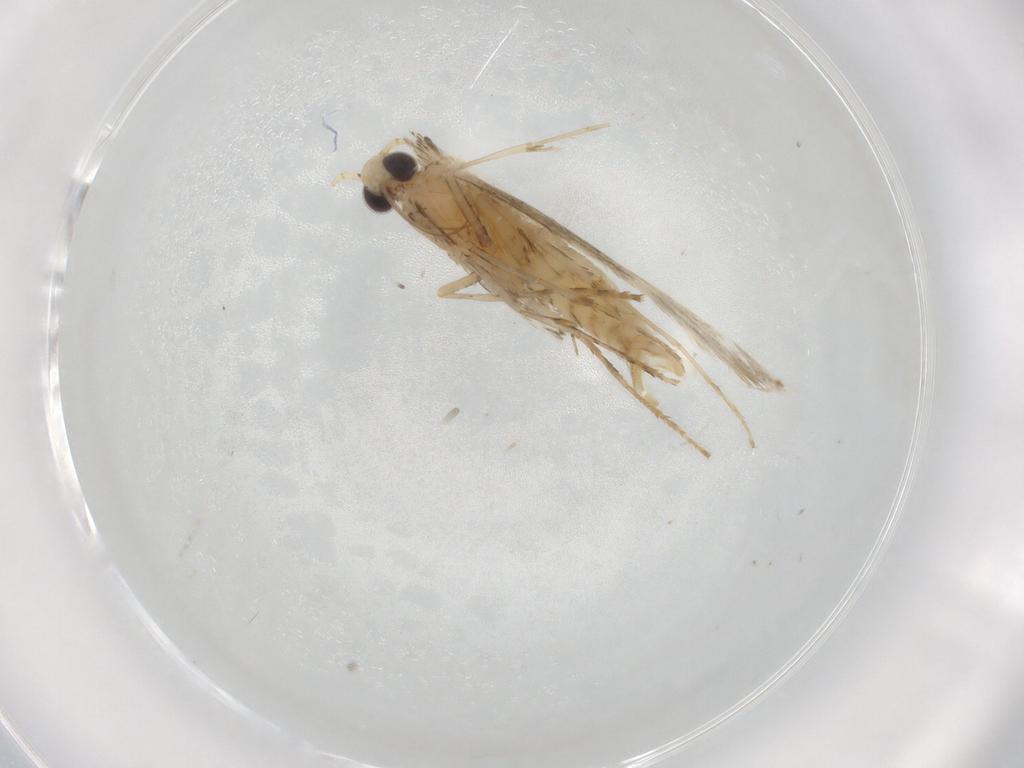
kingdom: Animalia
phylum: Arthropoda
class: Insecta
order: Lepidoptera
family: Gracillariidae
